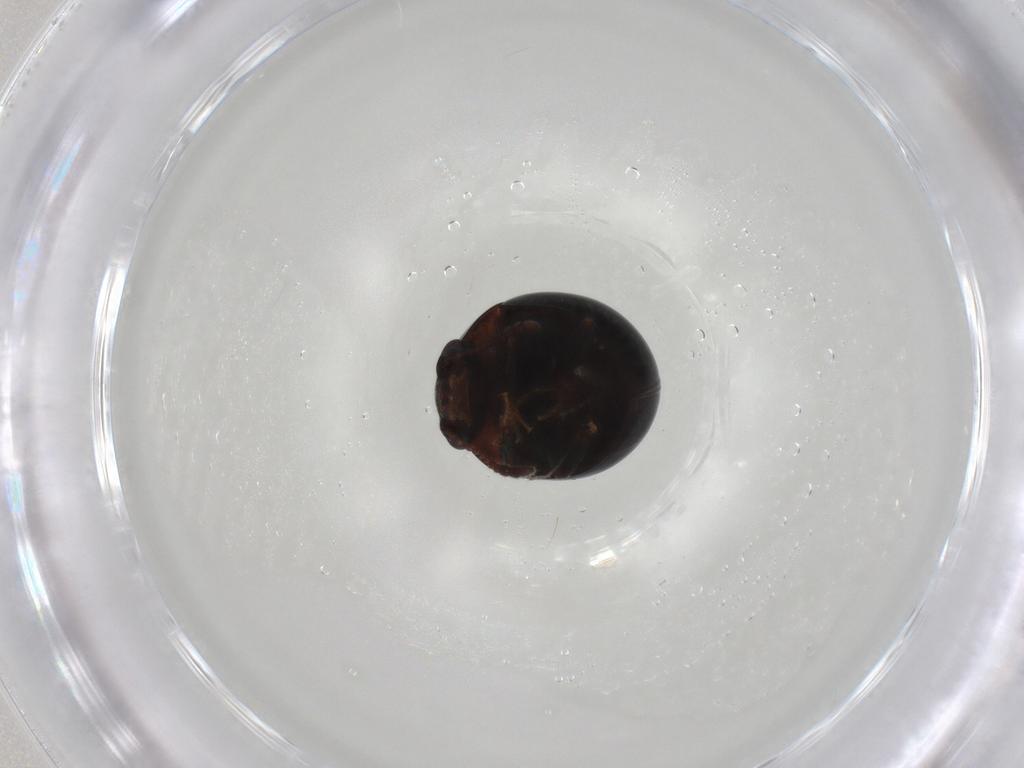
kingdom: Animalia
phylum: Arthropoda
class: Insecta
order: Coleoptera
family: Leiodidae
